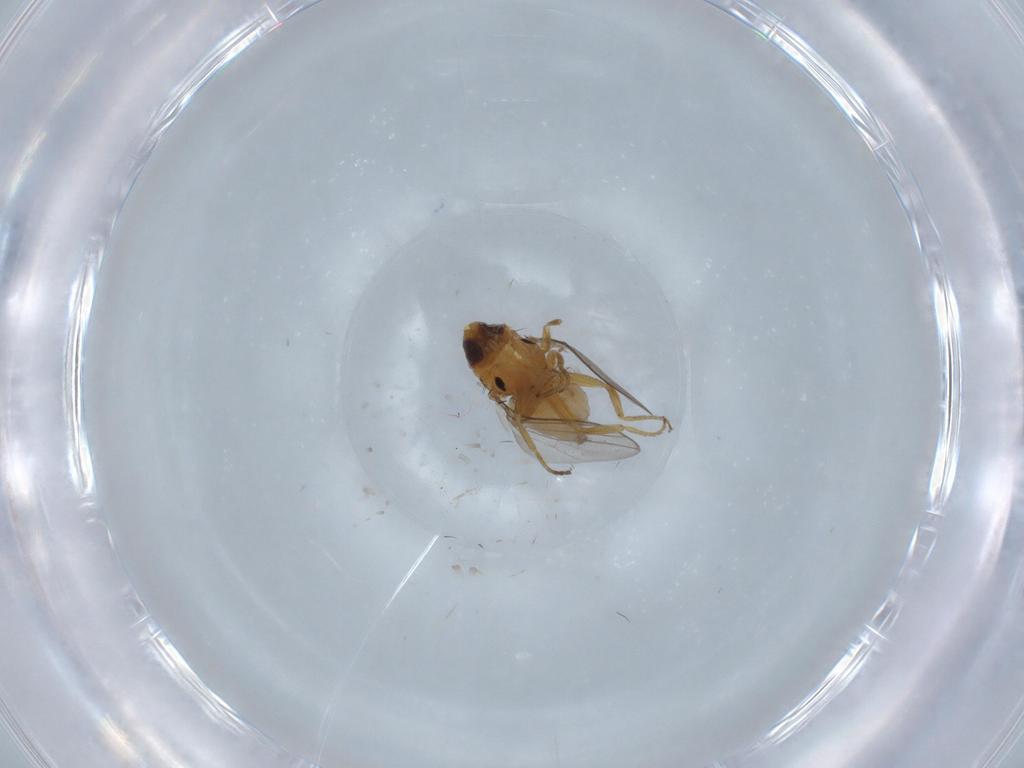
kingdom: Animalia
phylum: Arthropoda
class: Insecta
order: Diptera
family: Chloropidae
